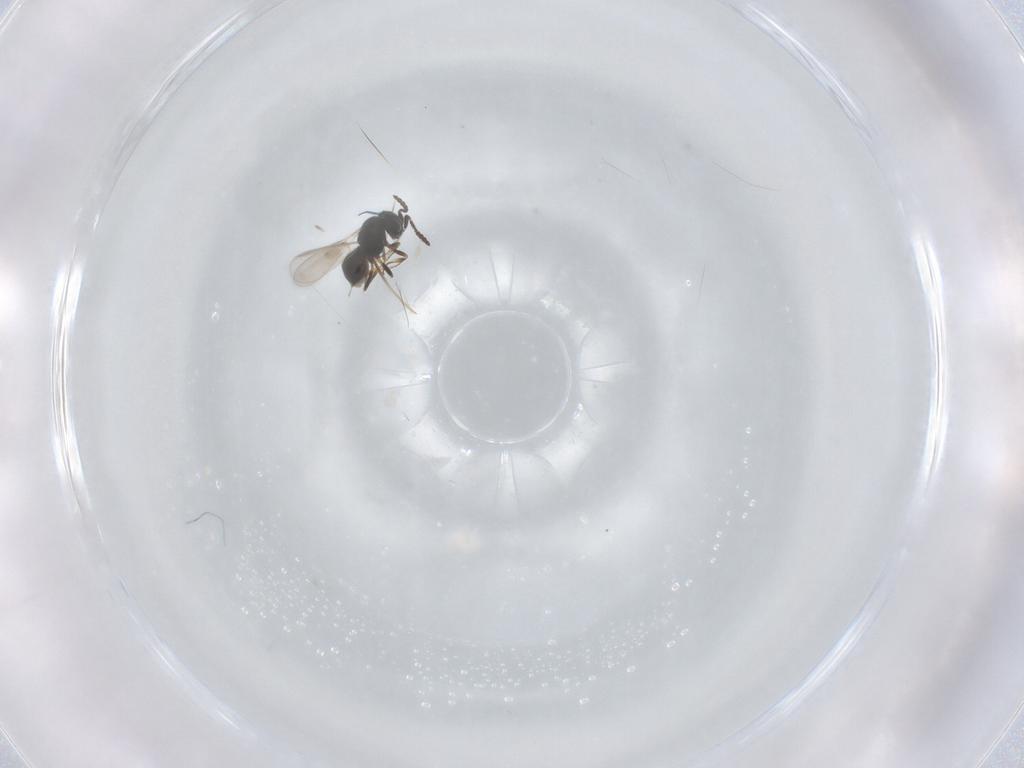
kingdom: Animalia
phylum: Arthropoda
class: Insecta
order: Hymenoptera
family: Scelionidae
